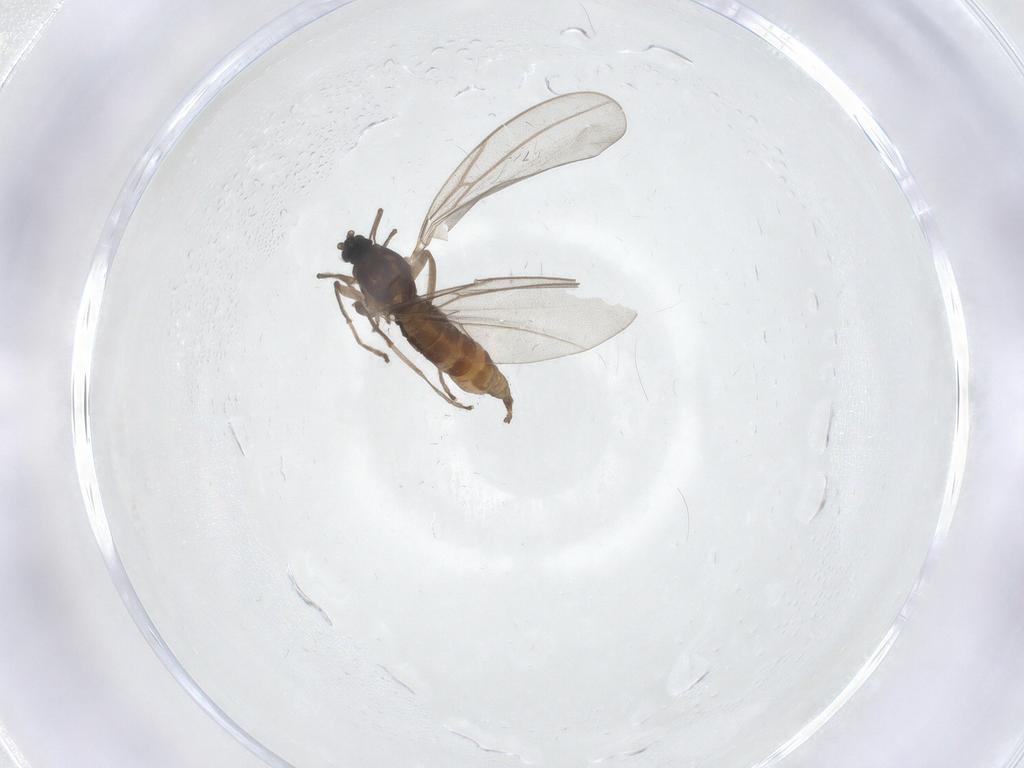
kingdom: Animalia
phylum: Arthropoda
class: Insecta
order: Diptera
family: Cecidomyiidae
